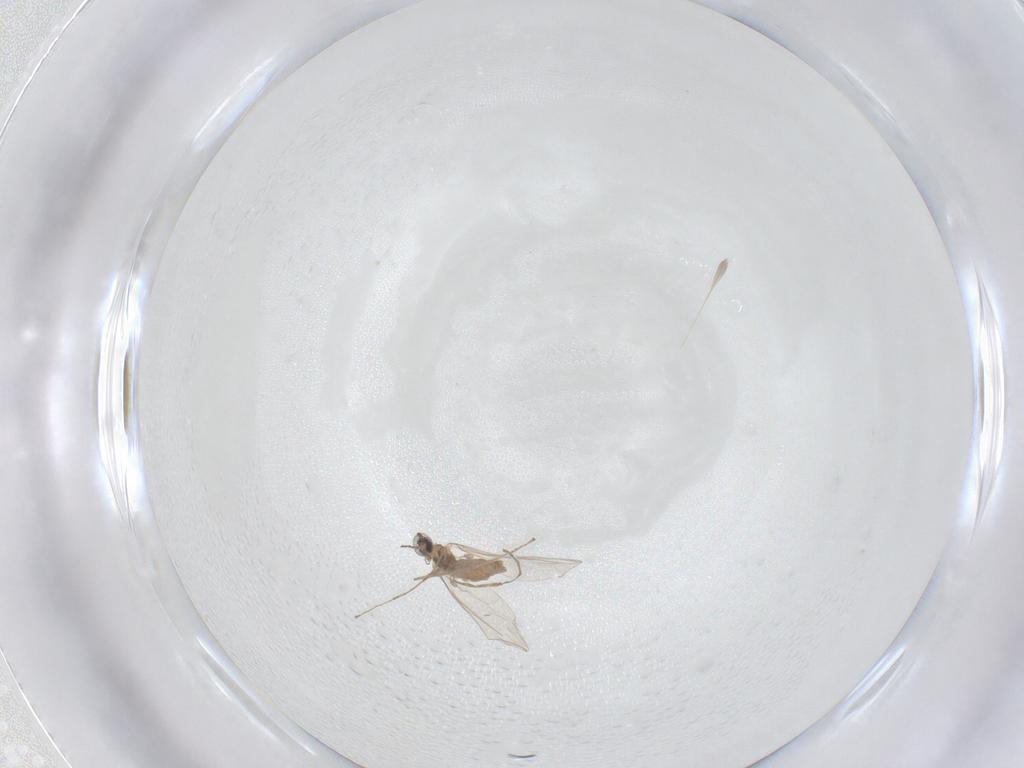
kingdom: Animalia
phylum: Arthropoda
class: Insecta
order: Diptera
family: Cecidomyiidae
